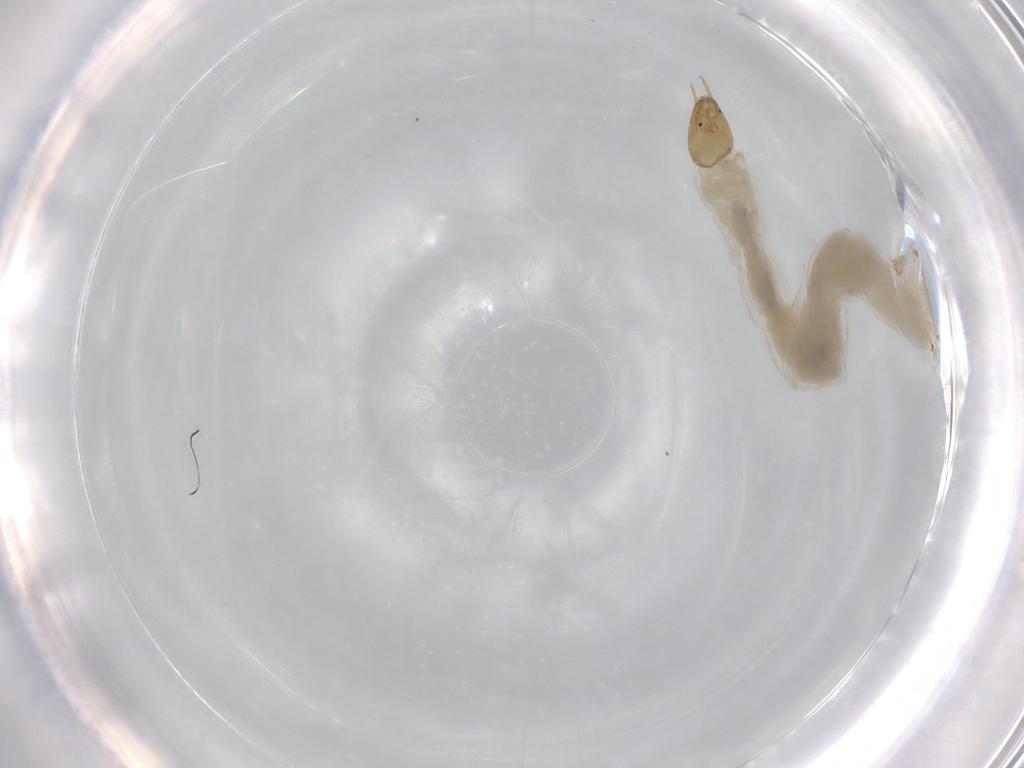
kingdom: Animalia
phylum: Arthropoda
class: Insecta
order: Diptera
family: Chironomidae
